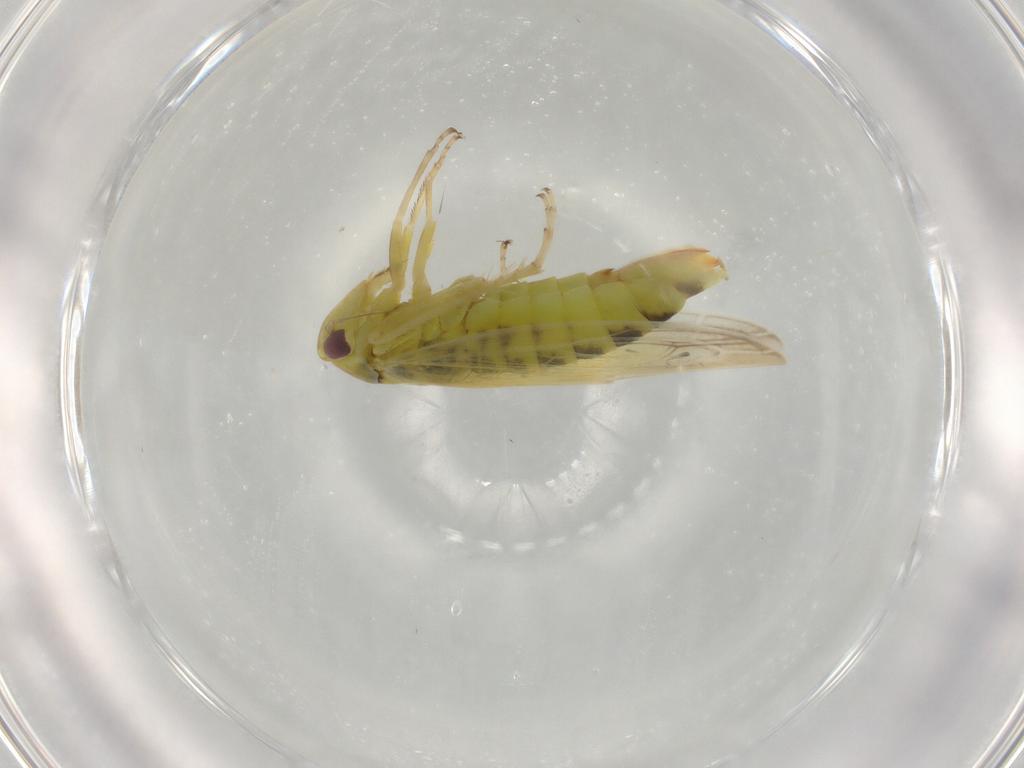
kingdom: Animalia
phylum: Arthropoda
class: Insecta
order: Hemiptera
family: Cicadellidae
